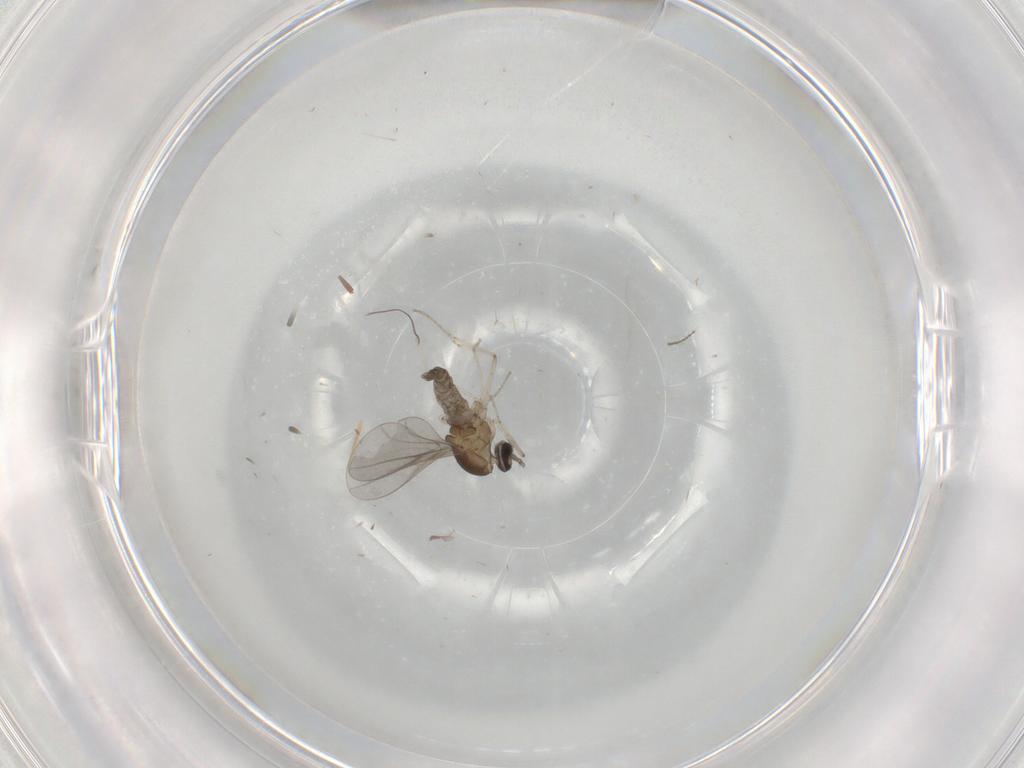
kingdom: Animalia
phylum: Arthropoda
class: Insecta
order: Diptera
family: Cecidomyiidae
